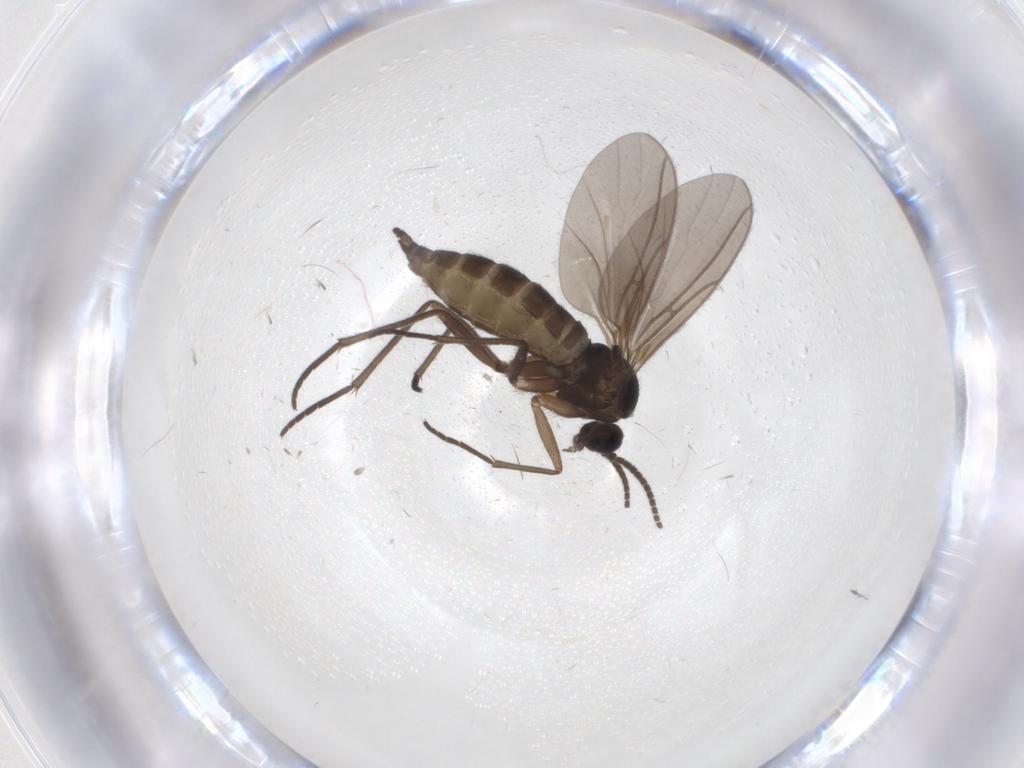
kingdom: Animalia
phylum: Arthropoda
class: Insecta
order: Diptera
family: Sciaridae
